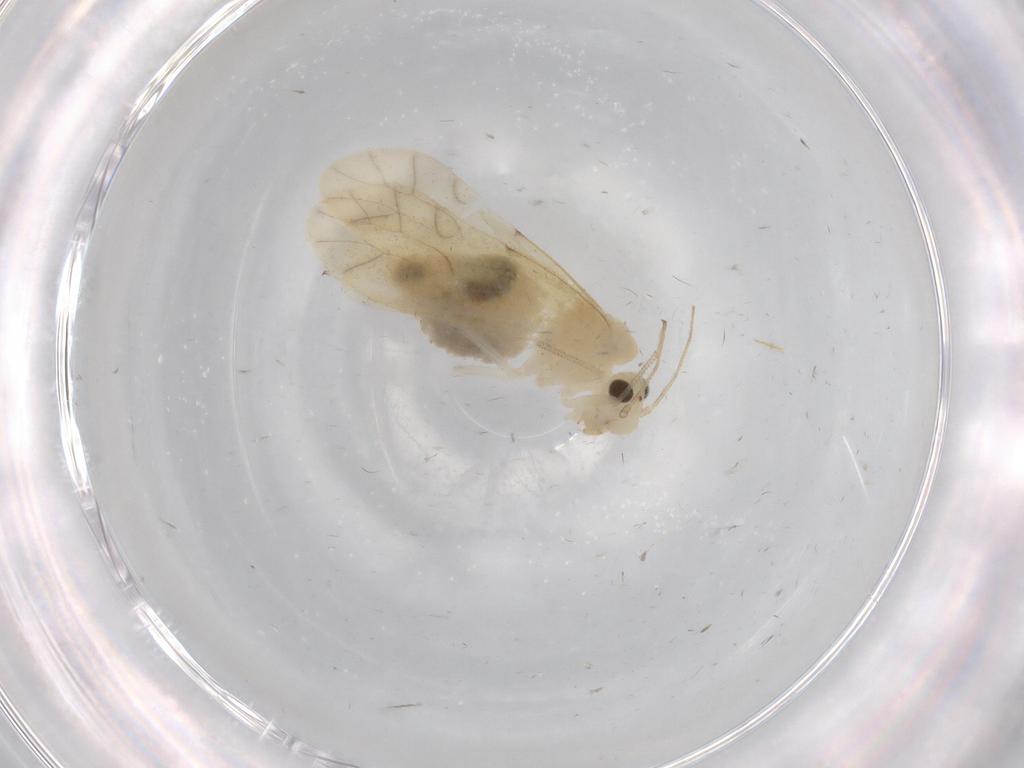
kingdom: Animalia
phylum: Arthropoda
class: Insecta
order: Psocodea
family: Caeciliusidae
